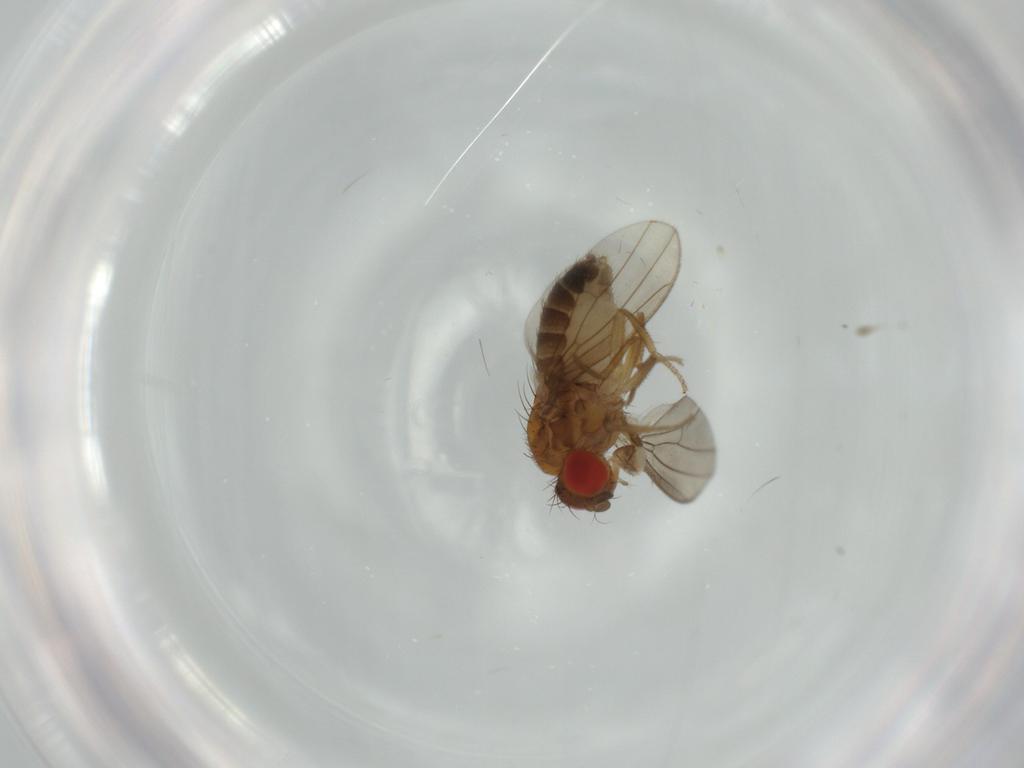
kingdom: Animalia
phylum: Arthropoda
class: Insecta
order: Diptera
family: Drosophilidae
